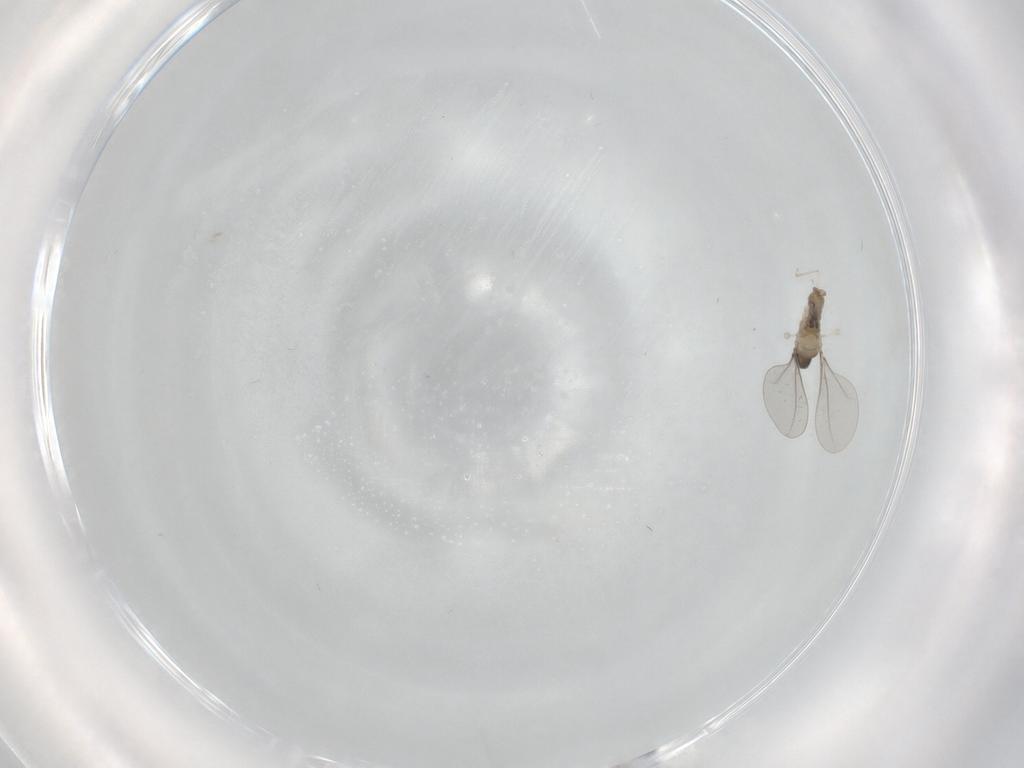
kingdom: Animalia
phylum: Arthropoda
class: Insecta
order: Diptera
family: Cecidomyiidae
